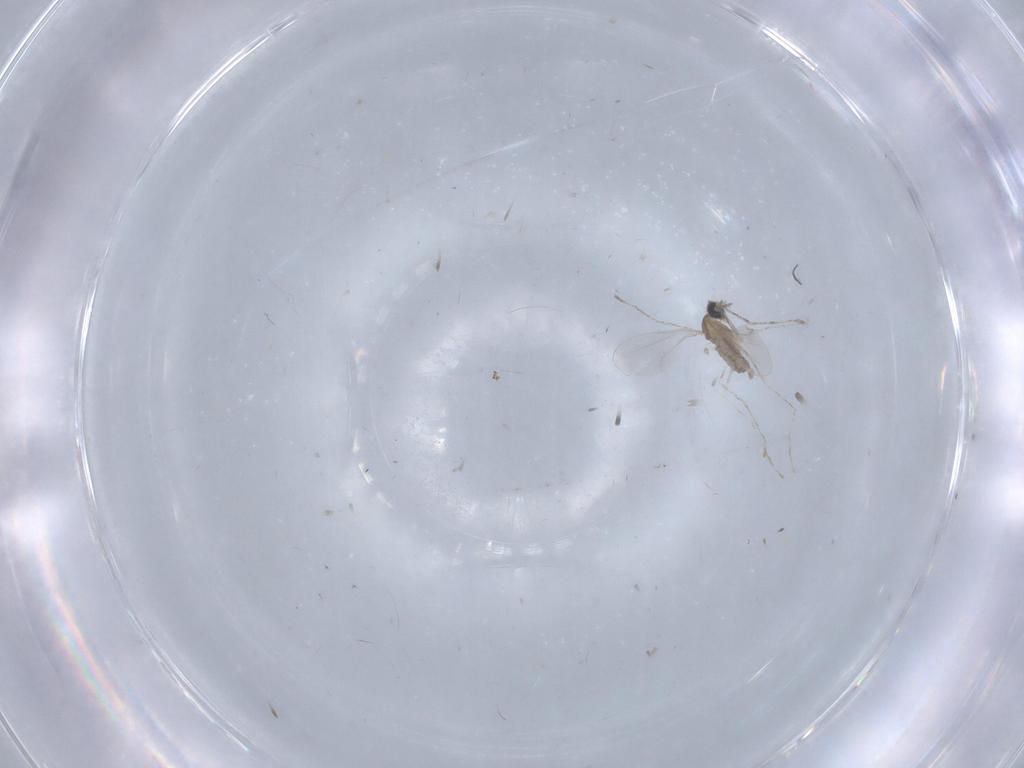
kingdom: Animalia
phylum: Arthropoda
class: Insecta
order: Diptera
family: Cecidomyiidae
